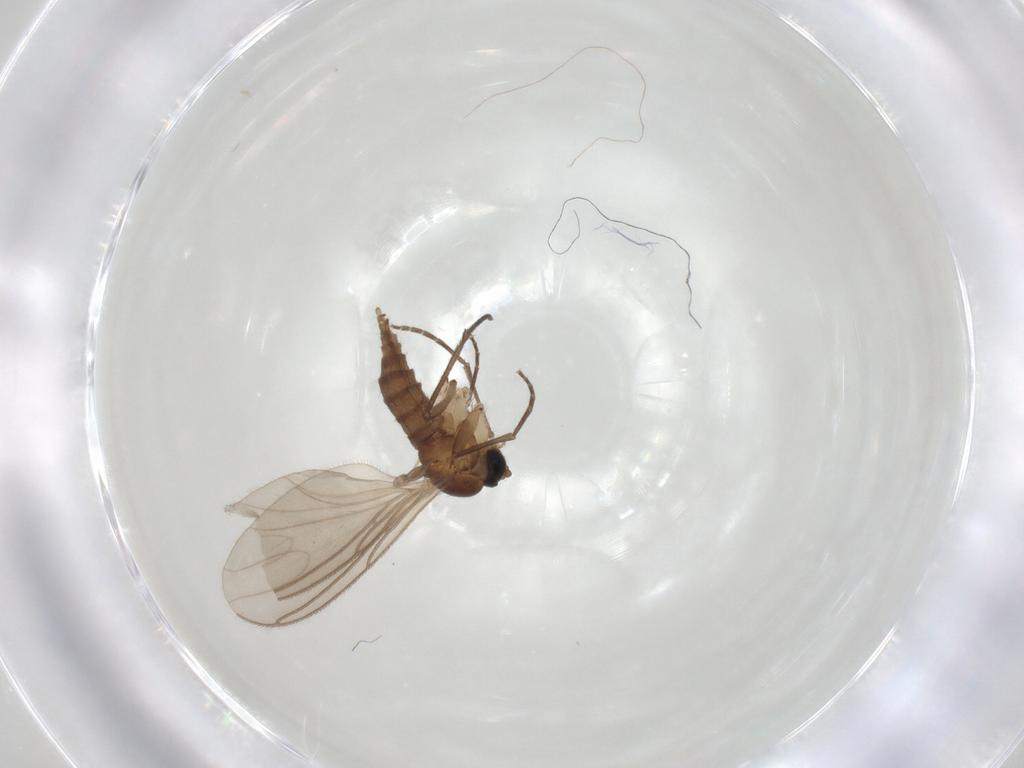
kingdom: Animalia
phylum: Arthropoda
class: Insecta
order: Diptera
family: Sciaridae
